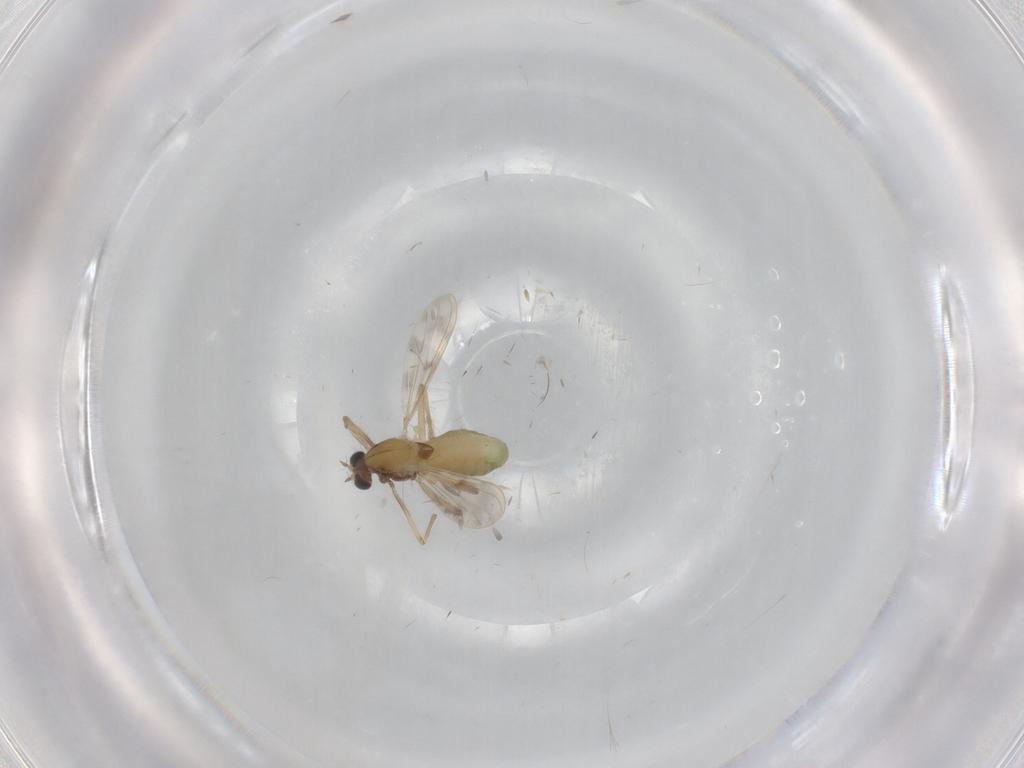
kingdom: Animalia
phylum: Arthropoda
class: Insecta
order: Diptera
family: Chironomidae
